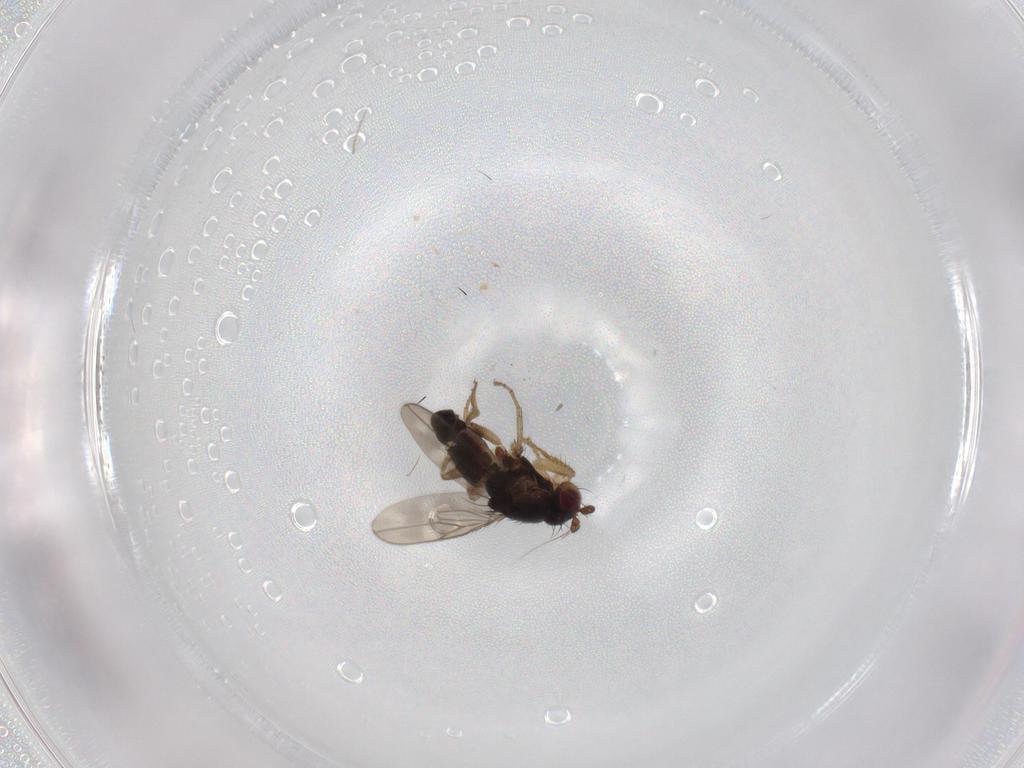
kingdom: Animalia
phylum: Arthropoda
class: Insecta
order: Diptera
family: Phoridae
